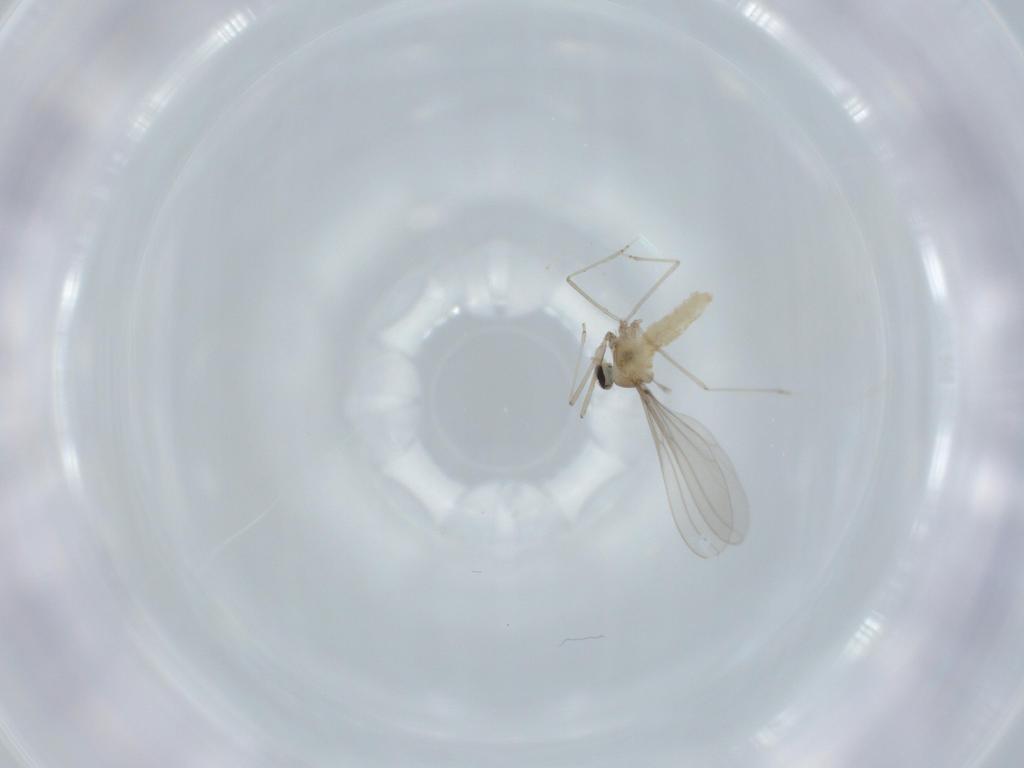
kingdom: Animalia
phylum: Arthropoda
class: Insecta
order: Diptera
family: Cecidomyiidae
